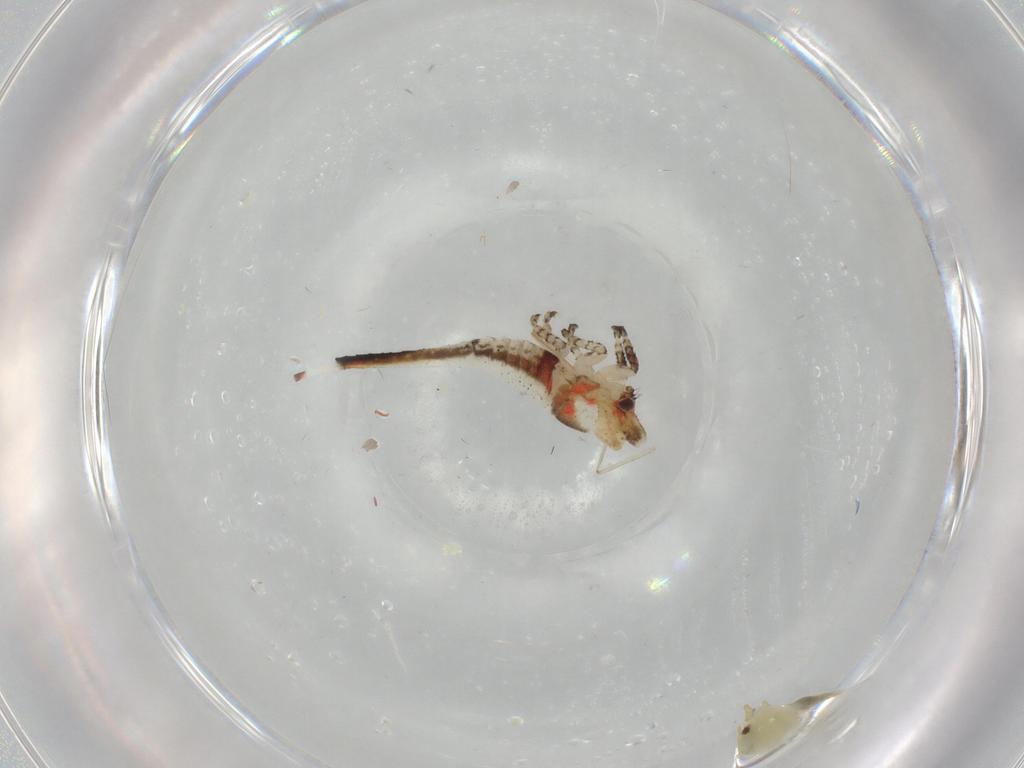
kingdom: Animalia
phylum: Arthropoda
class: Insecta
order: Hemiptera
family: Aleyrodidae
